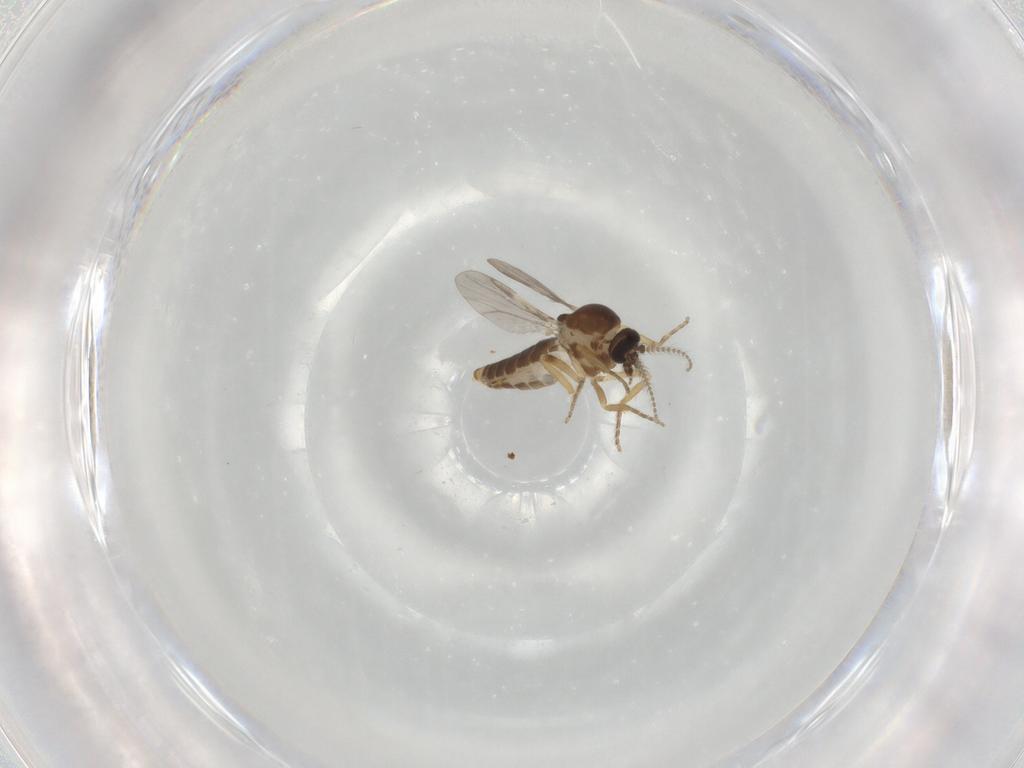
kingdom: Animalia
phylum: Arthropoda
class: Insecta
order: Diptera
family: Ceratopogonidae
